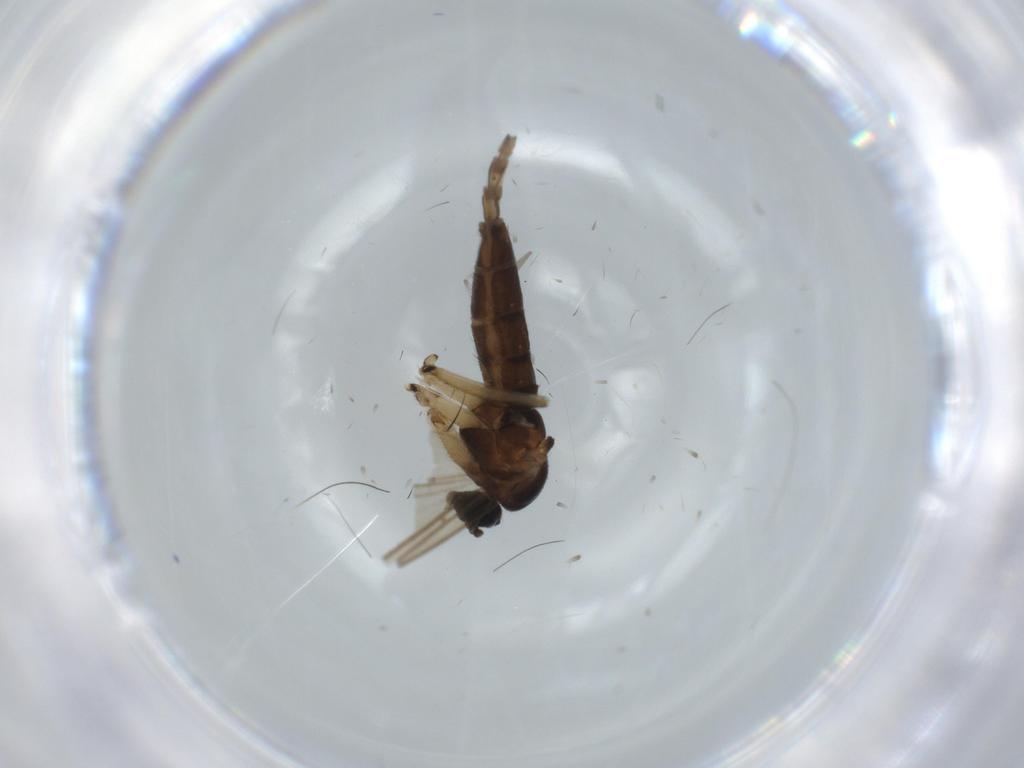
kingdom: Animalia
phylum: Arthropoda
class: Insecta
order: Diptera
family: Sciaridae
